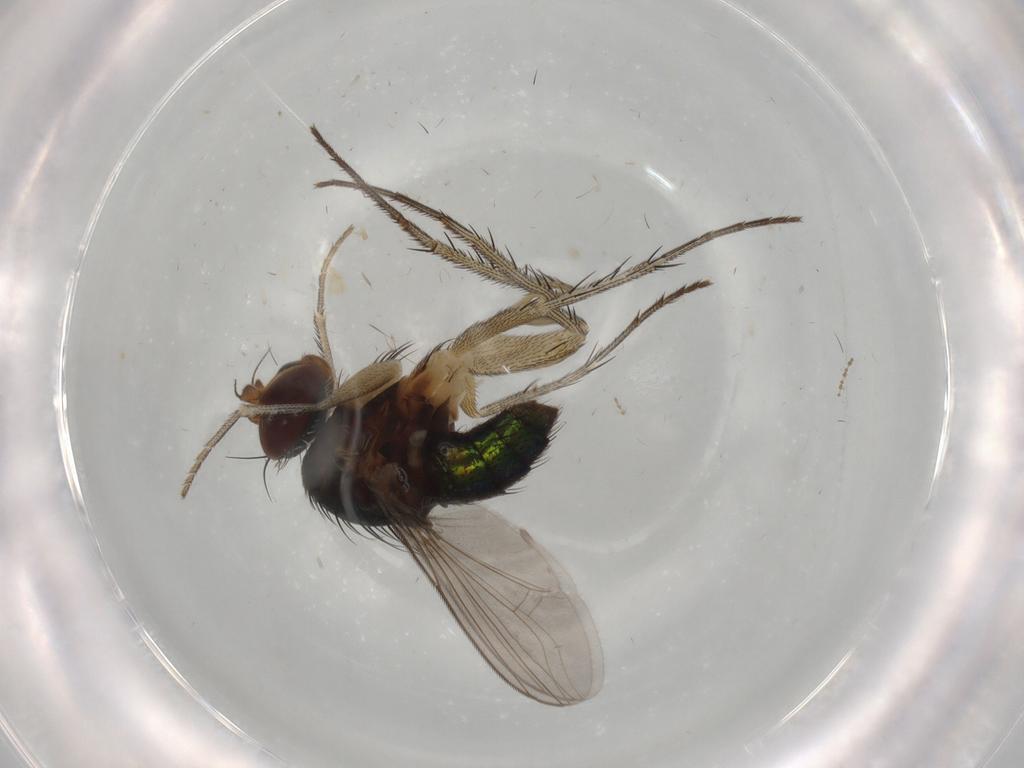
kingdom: Animalia
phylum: Arthropoda
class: Insecta
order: Diptera
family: Dolichopodidae
